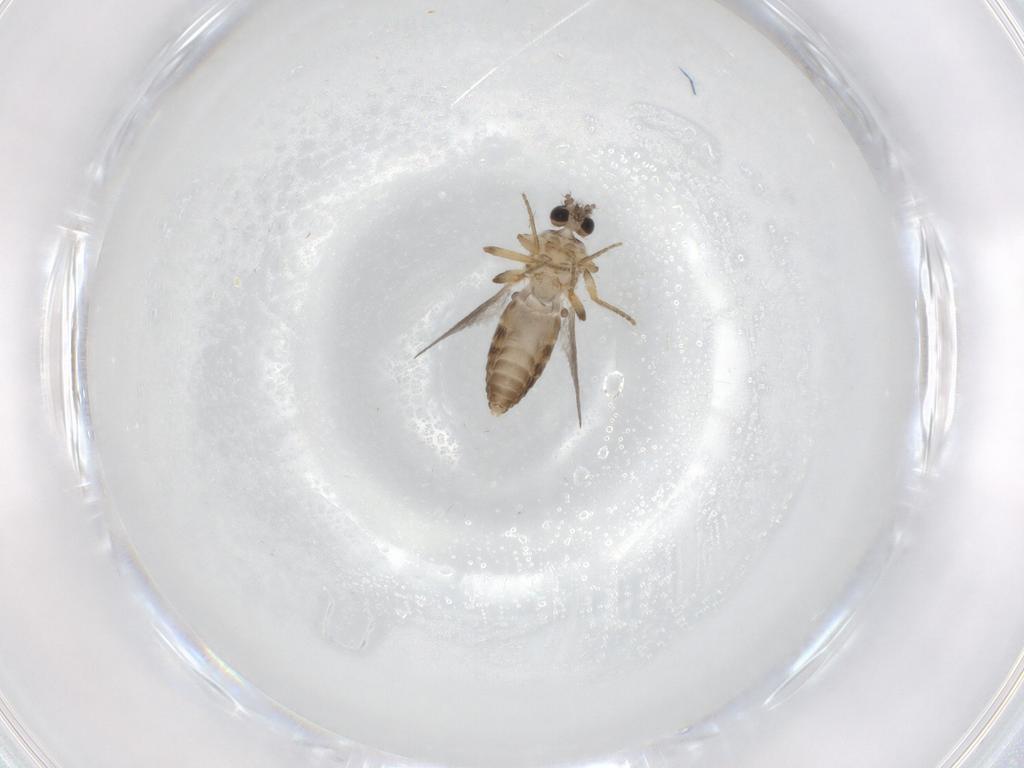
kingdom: Animalia
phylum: Arthropoda
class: Insecta
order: Diptera
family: Ceratopogonidae
